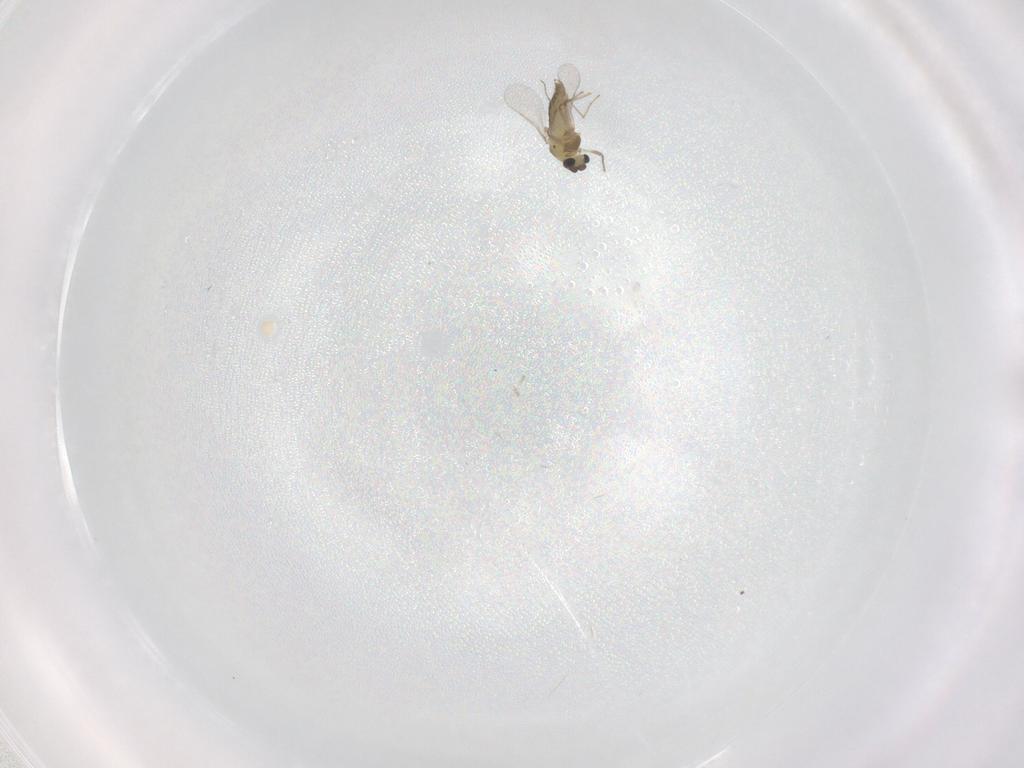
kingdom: Animalia
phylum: Arthropoda
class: Insecta
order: Diptera
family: Chironomidae
